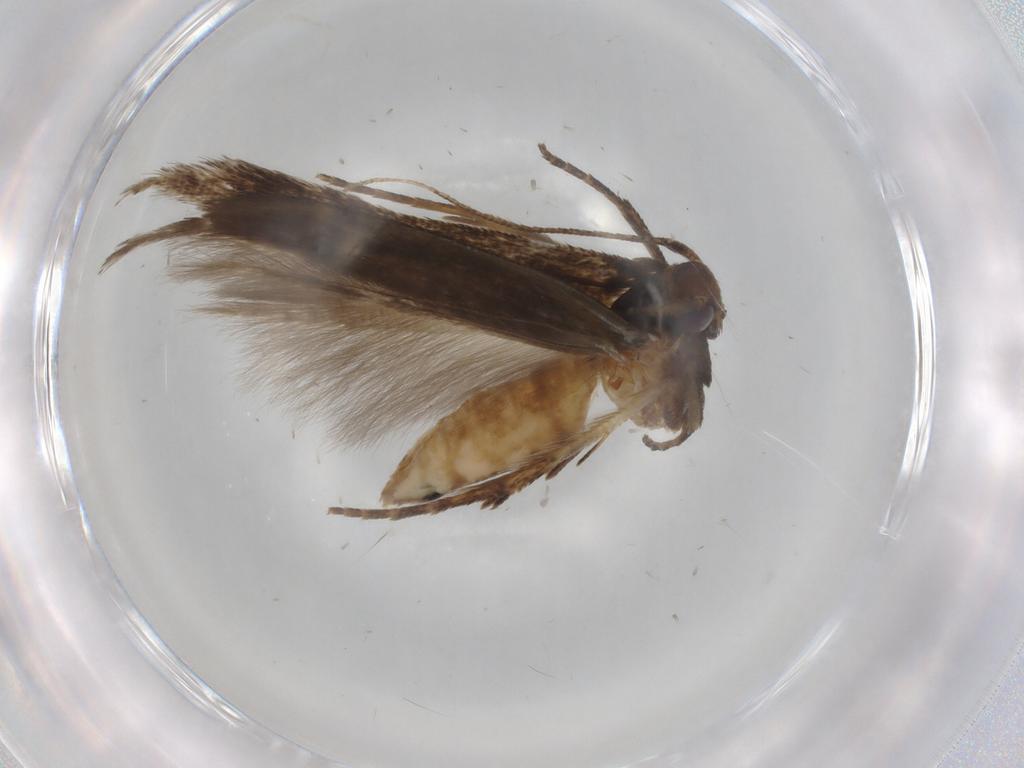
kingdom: Animalia
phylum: Arthropoda
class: Insecta
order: Lepidoptera
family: Cosmopterigidae
